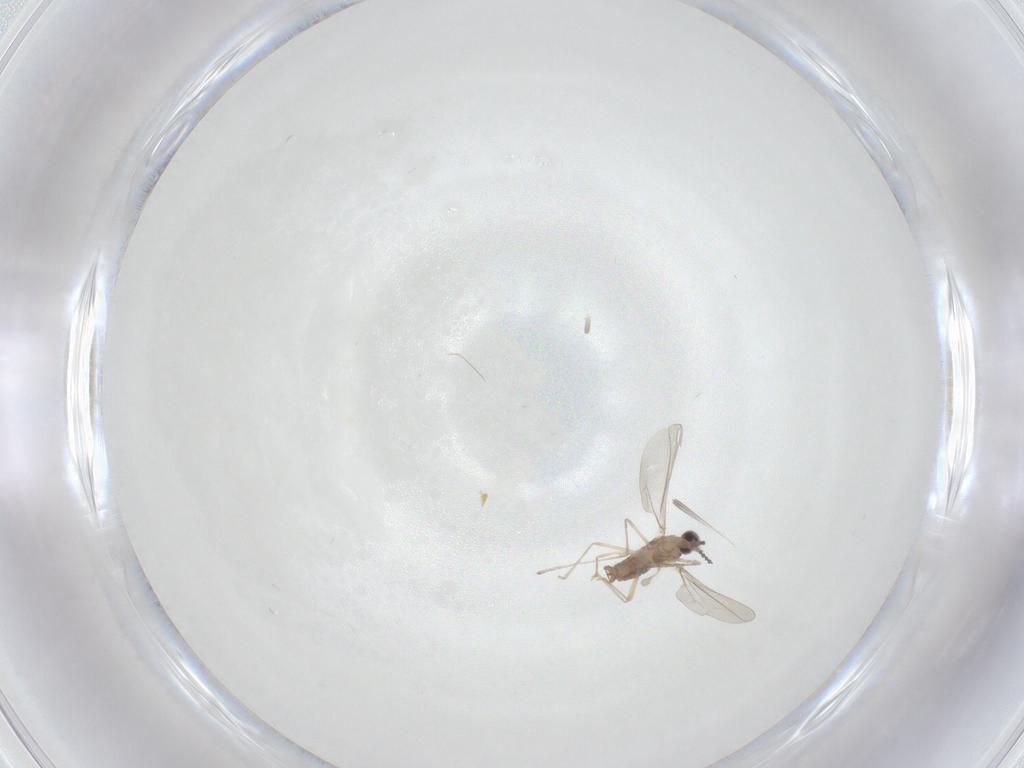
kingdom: Animalia
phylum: Arthropoda
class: Insecta
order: Diptera
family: Cecidomyiidae
